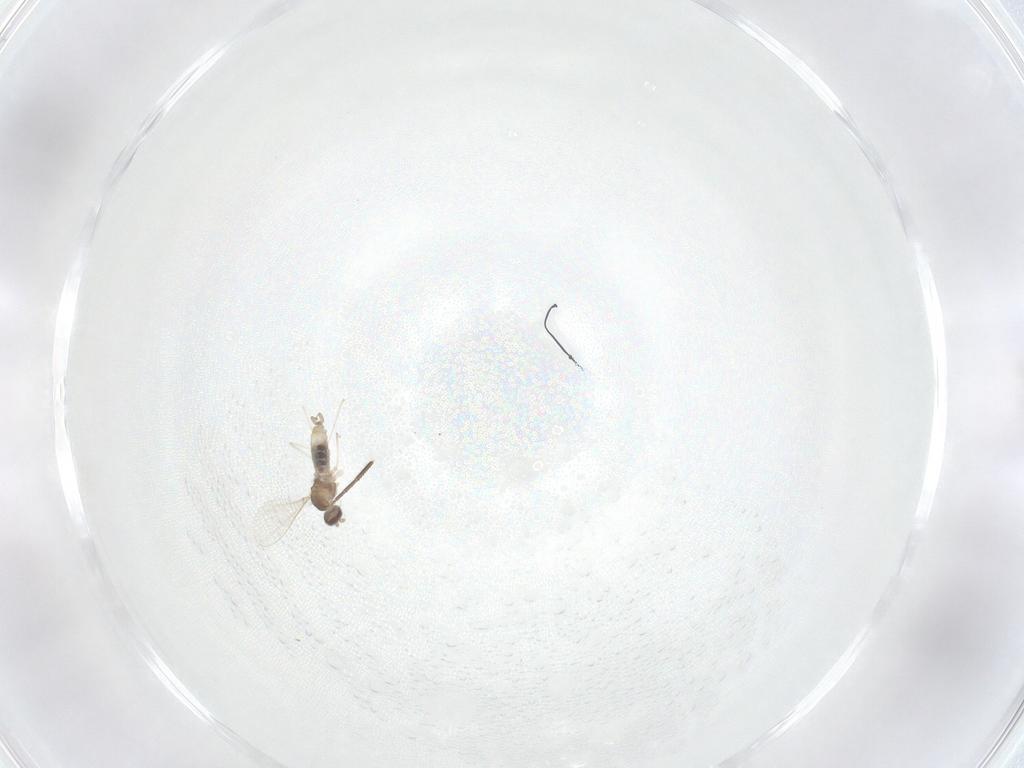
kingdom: Animalia
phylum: Arthropoda
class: Insecta
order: Diptera
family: Cecidomyiidae
